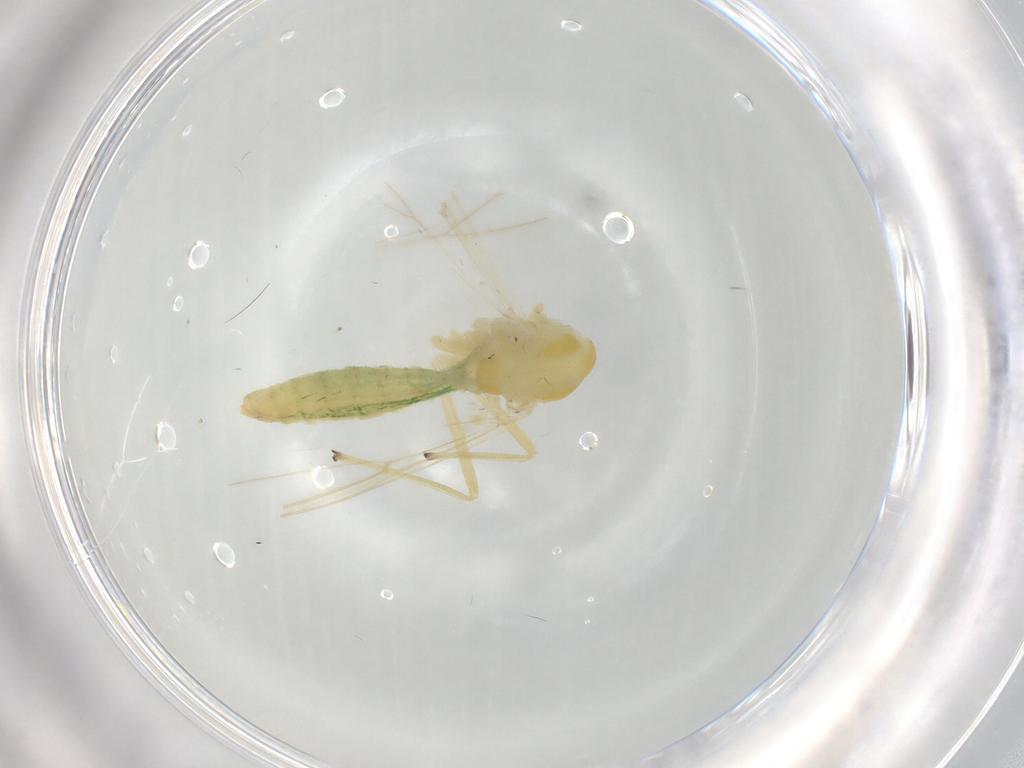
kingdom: Animalia
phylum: Arthropoda
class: Insecta
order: Diptera
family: Chironomidae
